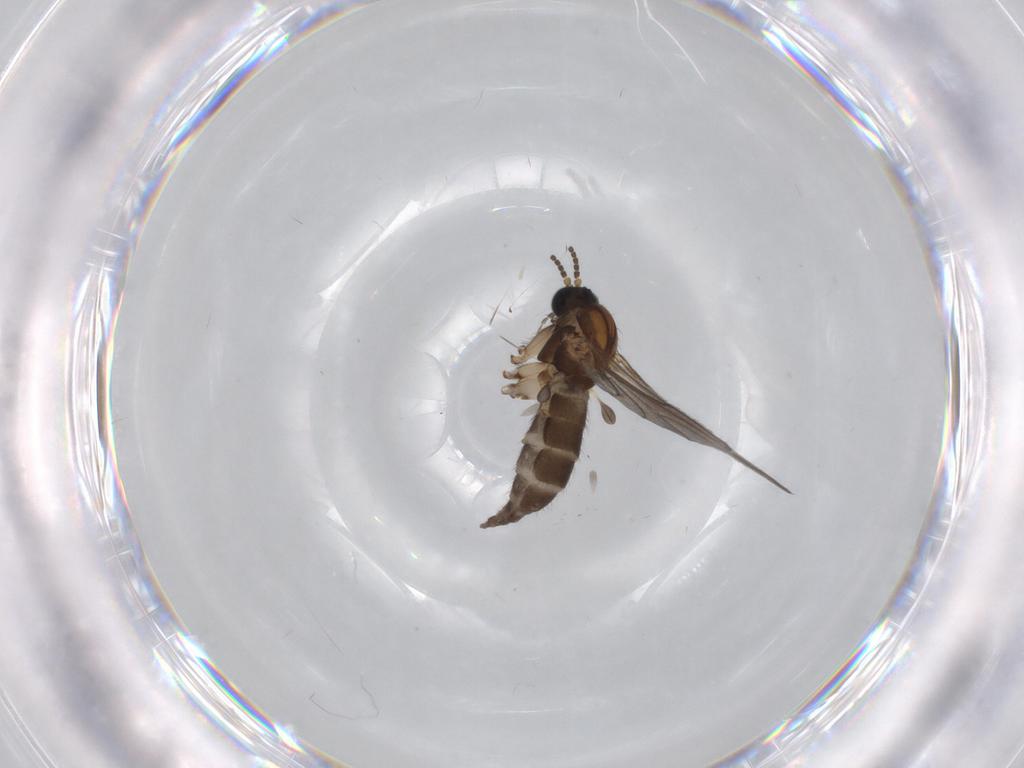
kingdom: Animalia
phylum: Arthropoda
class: Insecta
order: Diptera
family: Sciaridae
